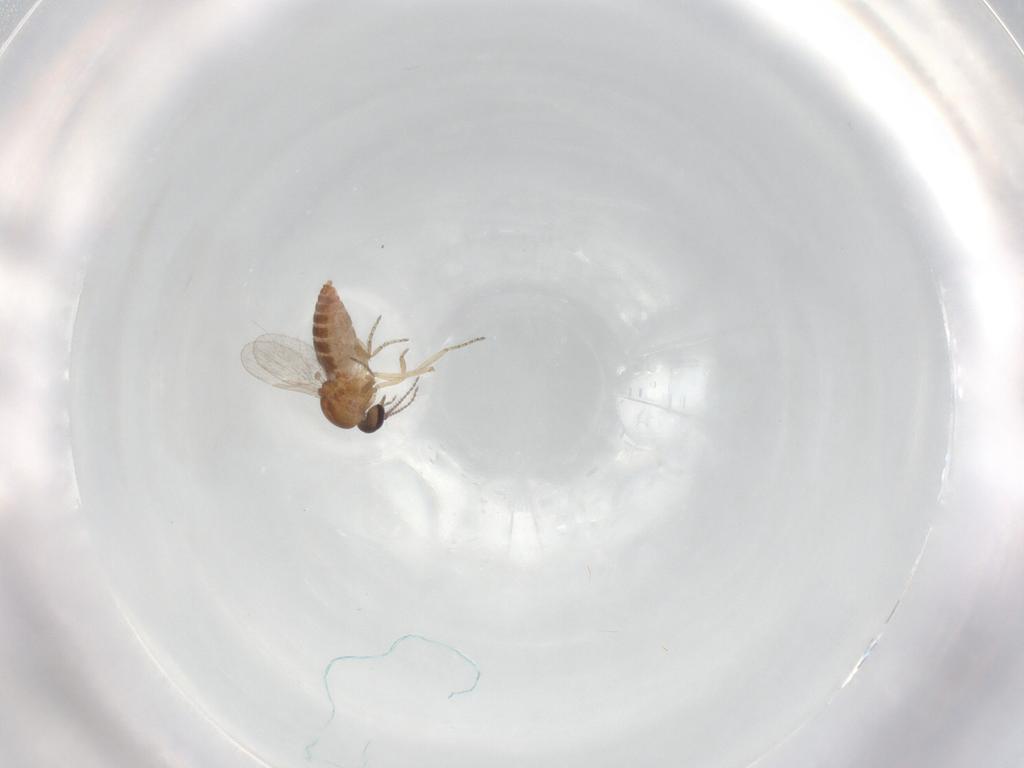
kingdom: Animalia
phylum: Arthropoda
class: Insecta
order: Diptera
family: Ceratopogonidae
